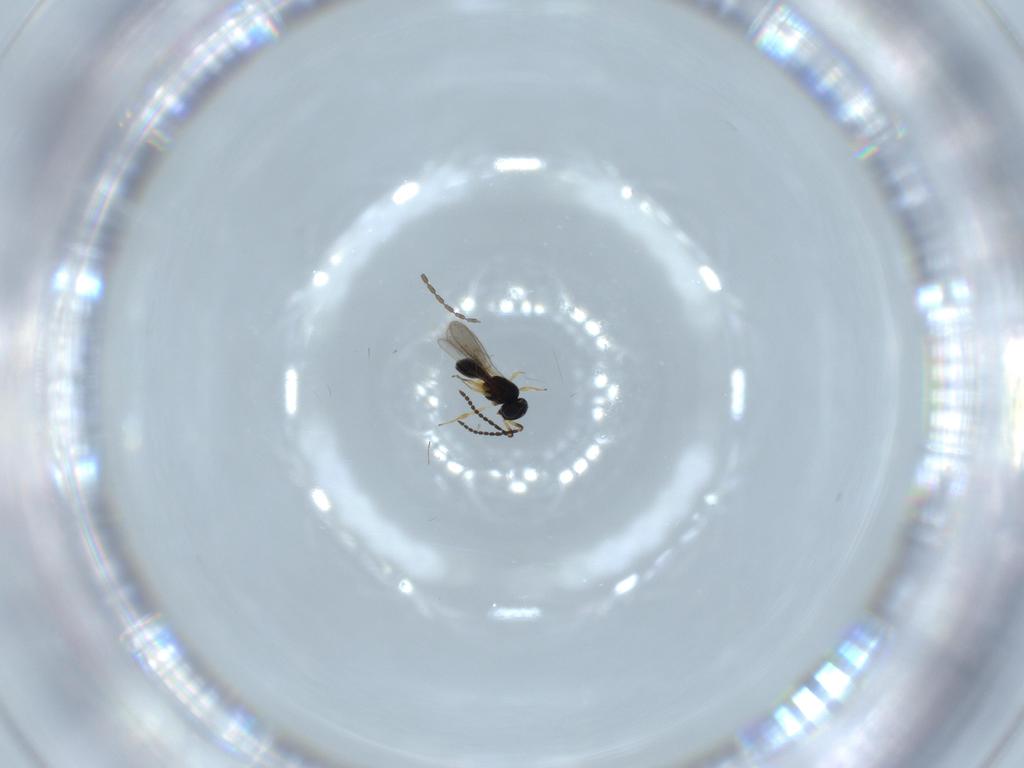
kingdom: Animalia
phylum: Arthropoda
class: Insecta
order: Hymenoptera
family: Scelionidae
